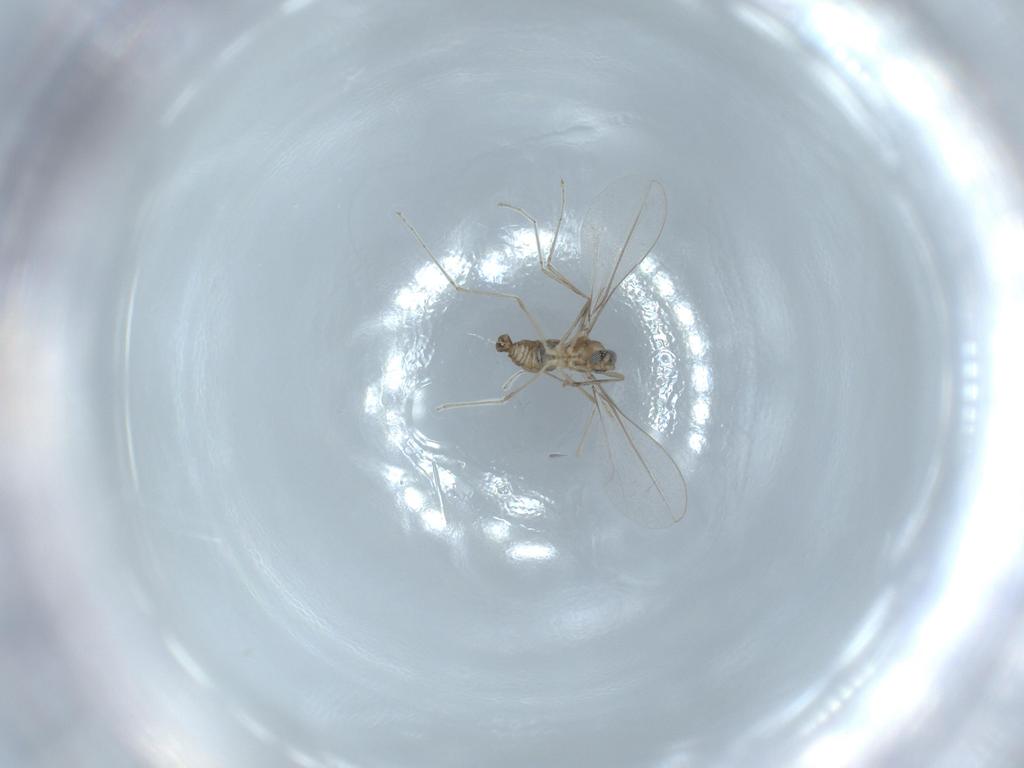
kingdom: Animalia
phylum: Arthropoda
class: Insecta
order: Diptera
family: Cecidomyiidae
